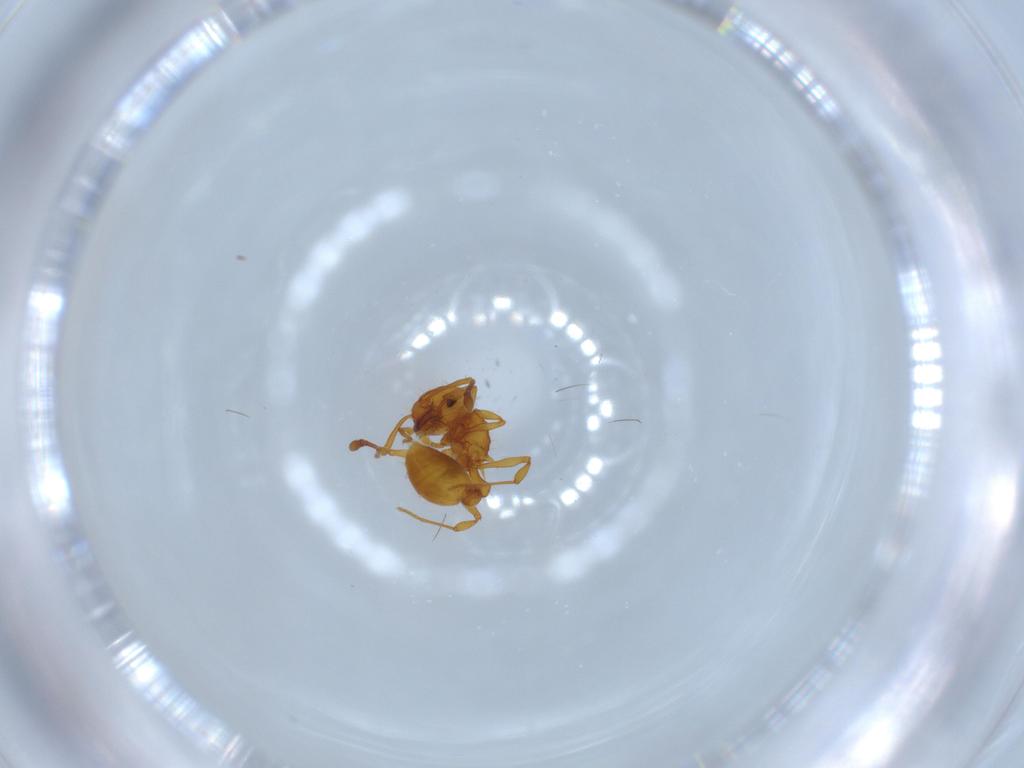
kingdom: Animalia
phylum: Arthropoda
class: Insecta
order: Hymenoptera
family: Formicidae
